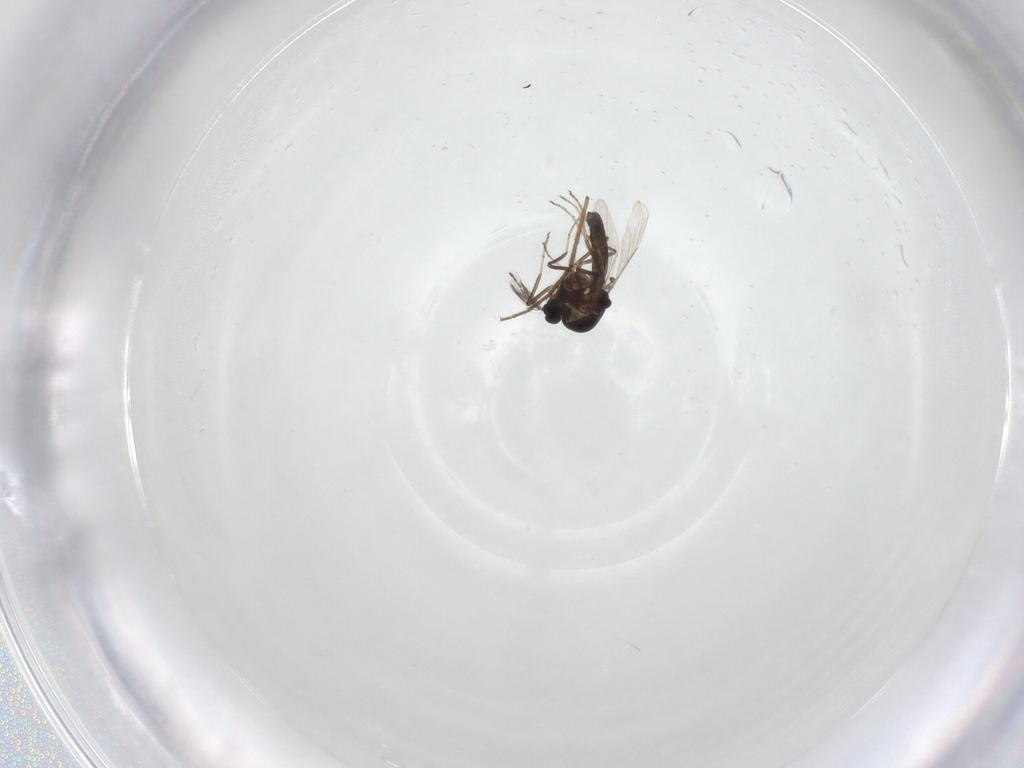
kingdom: Animalia
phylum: Arthropoda
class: Insecta
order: Diptera
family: Ceratopogonidae
